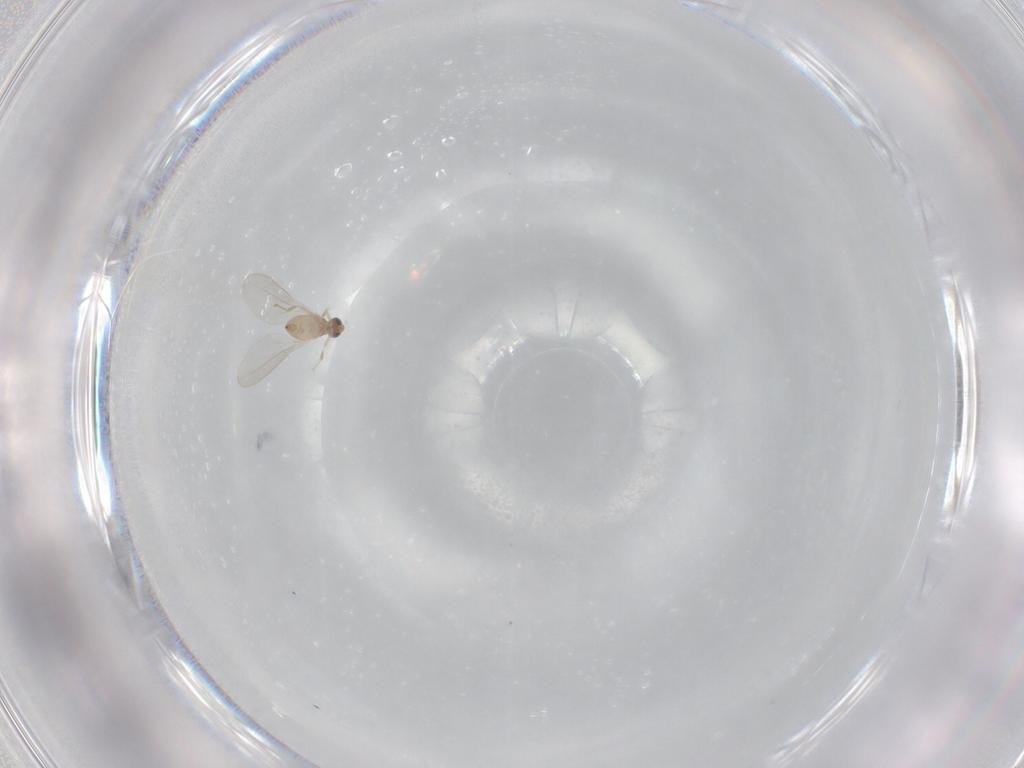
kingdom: Animalia
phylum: Arthropoda
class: Insecta
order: Diptera
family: Cecidomyiidae
